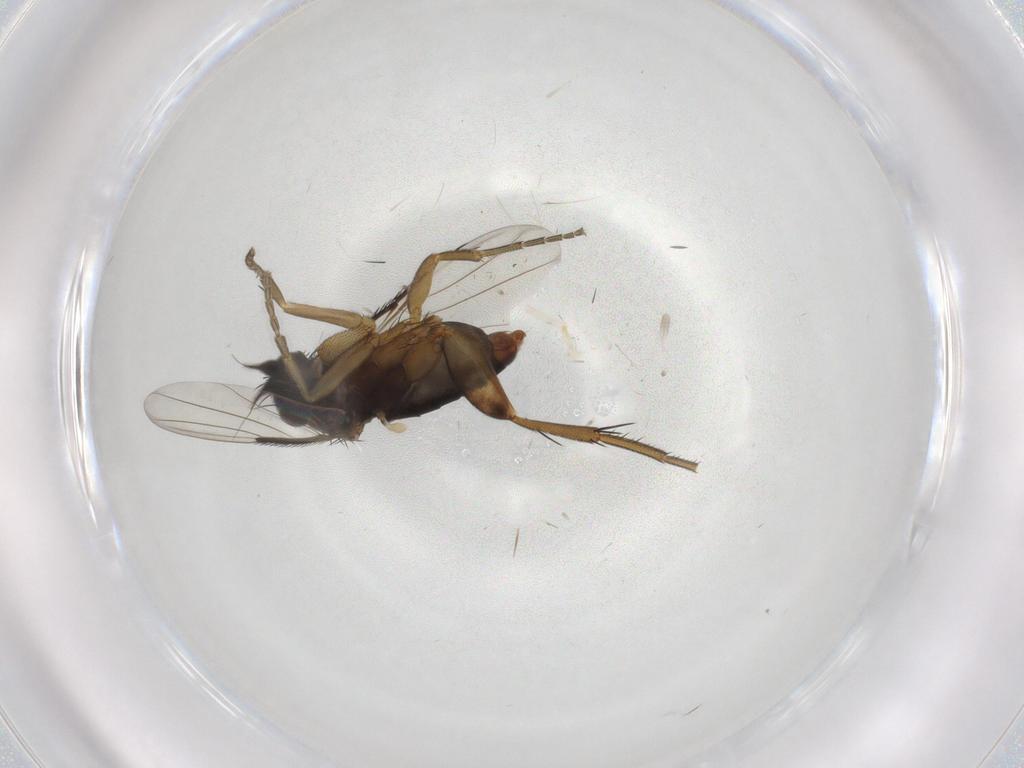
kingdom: Animalia
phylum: Arthropoda
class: Insecta
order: Diptera
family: Phoridae
